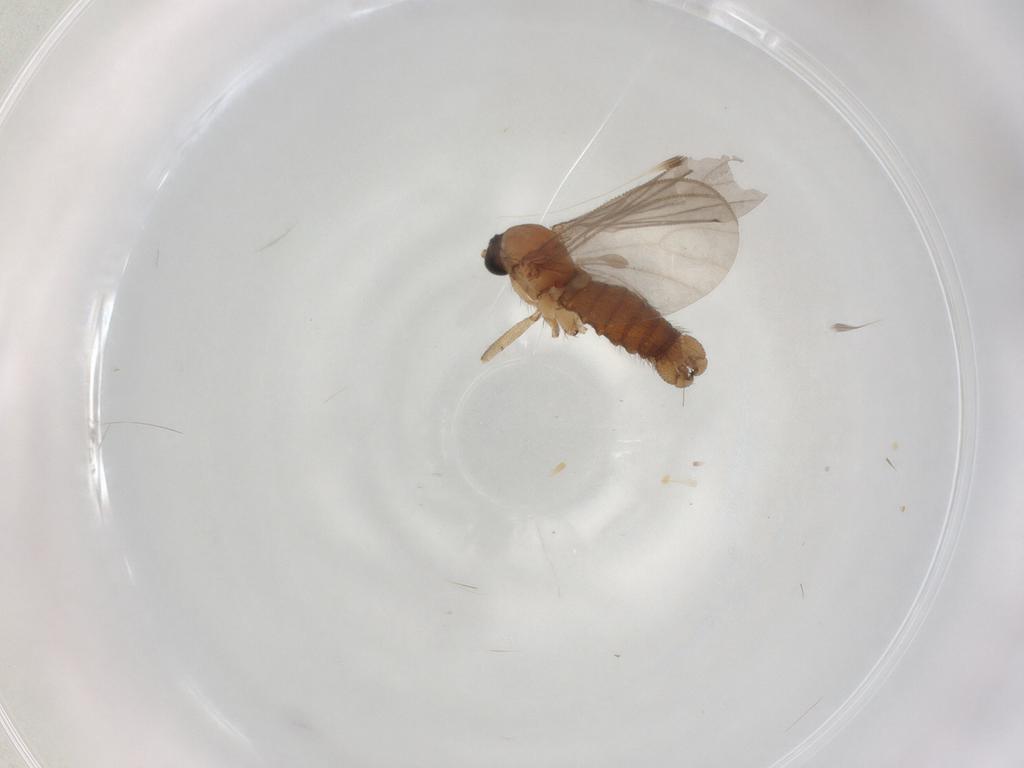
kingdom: Animalia
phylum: Arthropoda
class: Insecta
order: Diptera
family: Sciaridae
